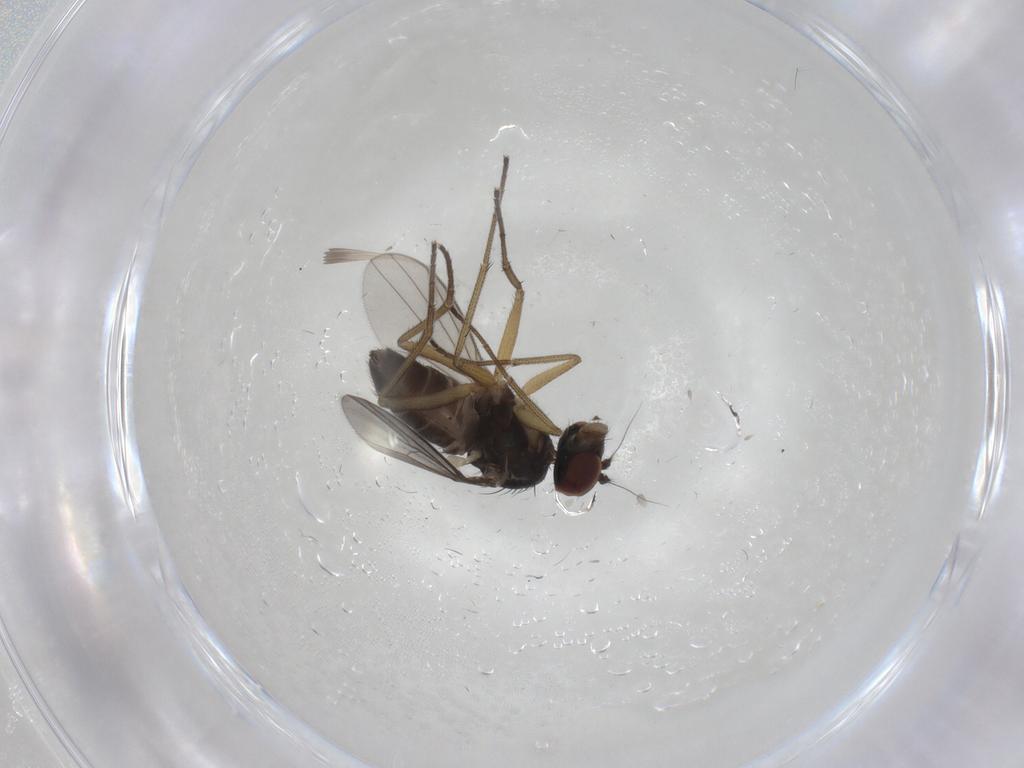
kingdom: Animalia
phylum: Arthropoda
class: Insecta
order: Diptera
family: Dolichopodidae
